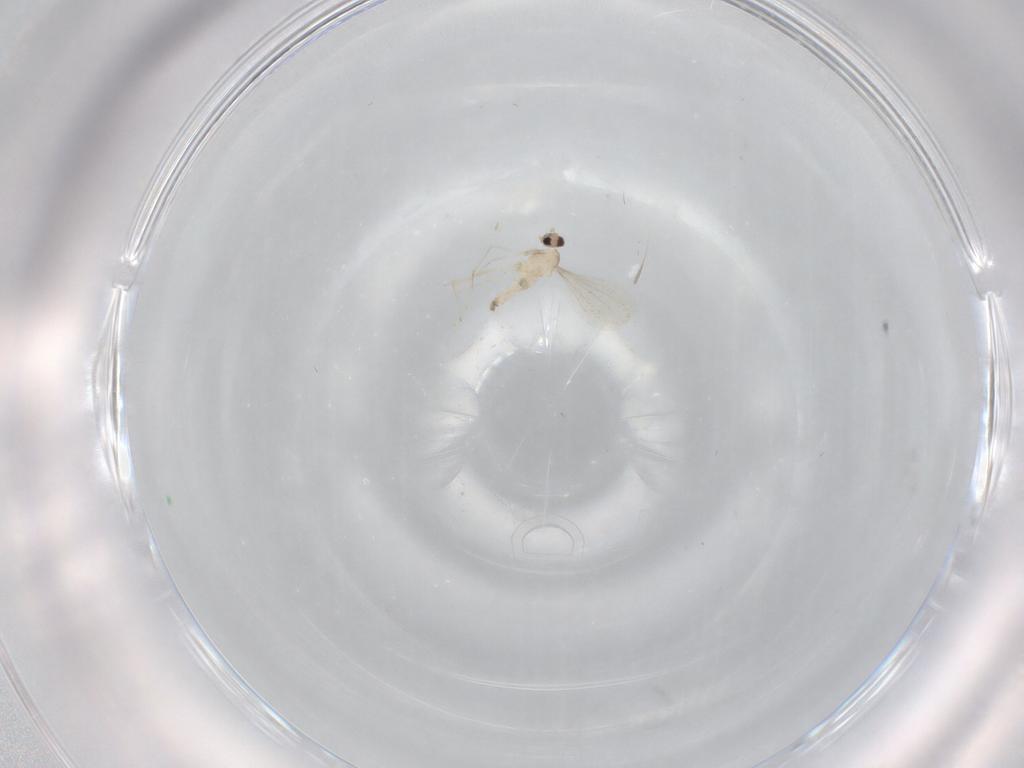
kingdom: Animalia
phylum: Arthropoda
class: Insecta
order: Diptera
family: Cecidomyiidae
